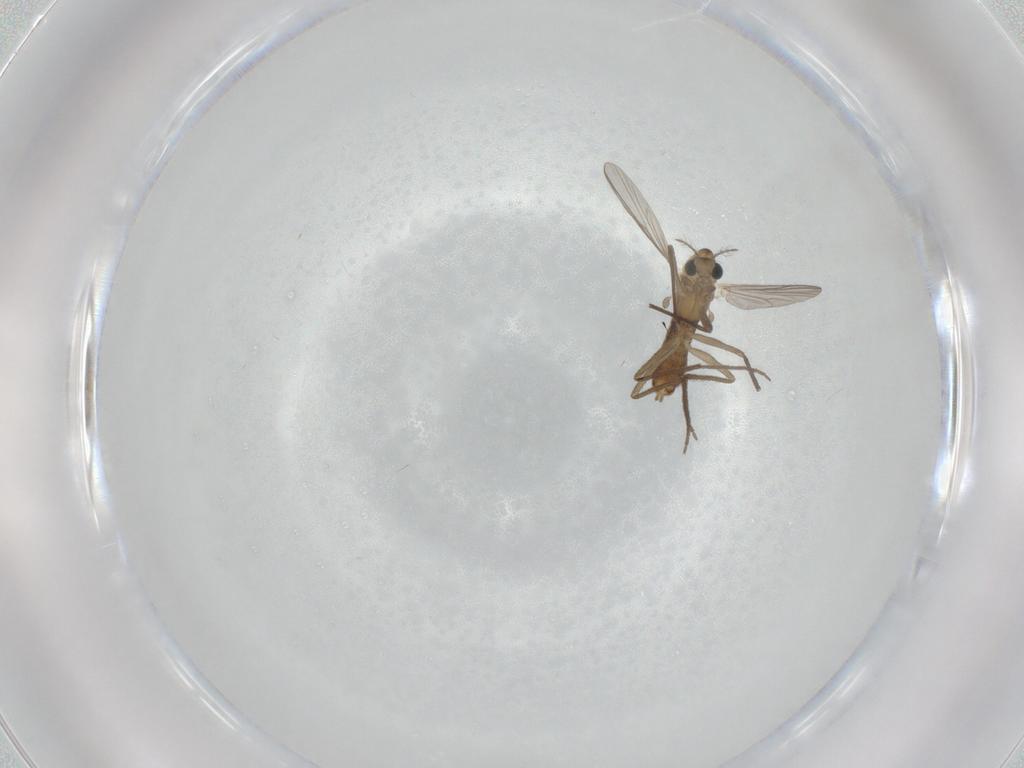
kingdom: Animalia
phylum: Arthropoda
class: Insecta
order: Diptera
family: Chironomidae
